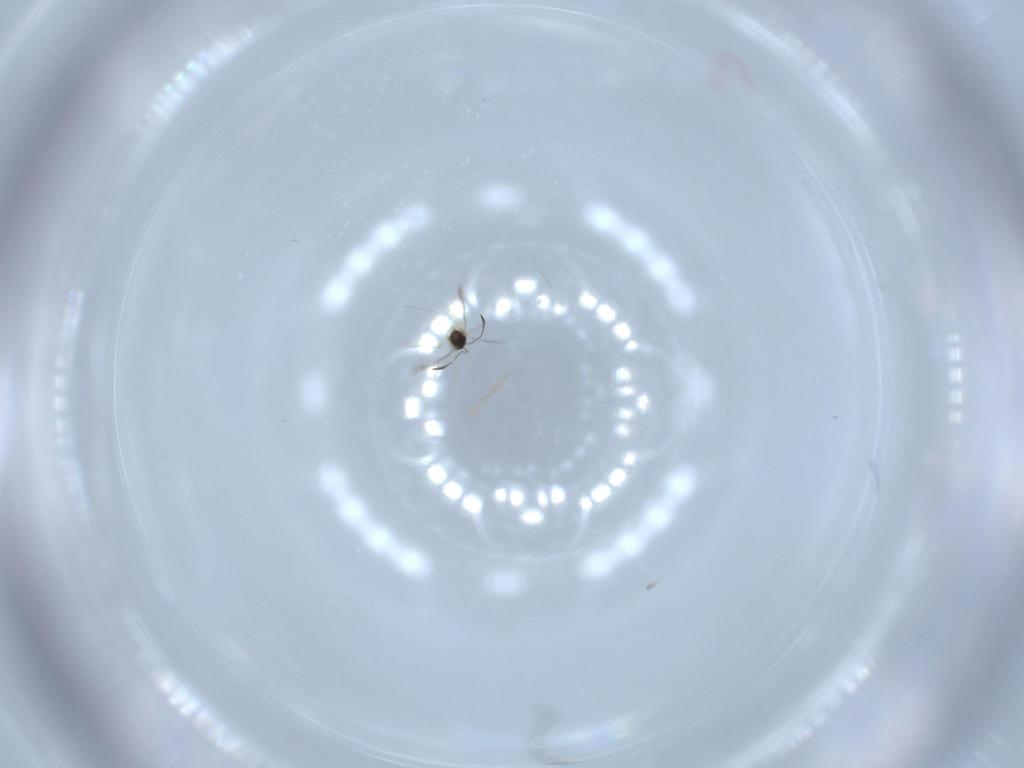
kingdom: Animalia
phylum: Arthropoda
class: Insecta
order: Hymenoptera
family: Mymaridae
